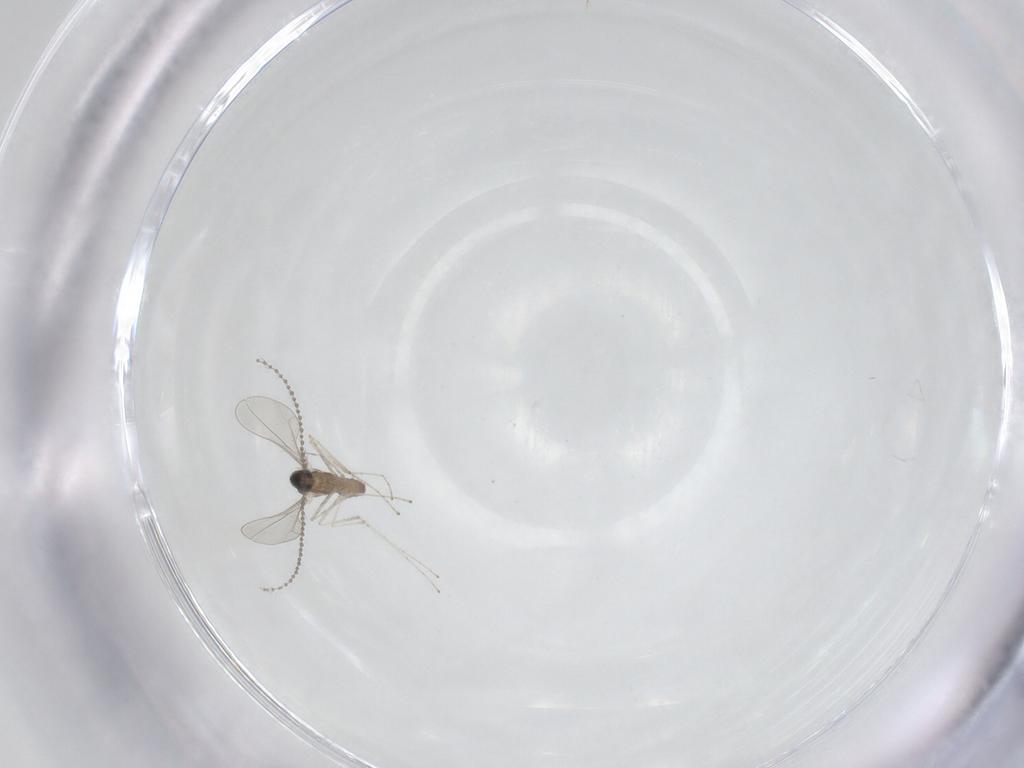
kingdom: Animalia
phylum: Arthropoda
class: Insecta
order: Diptera
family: Cecidomyiidae
